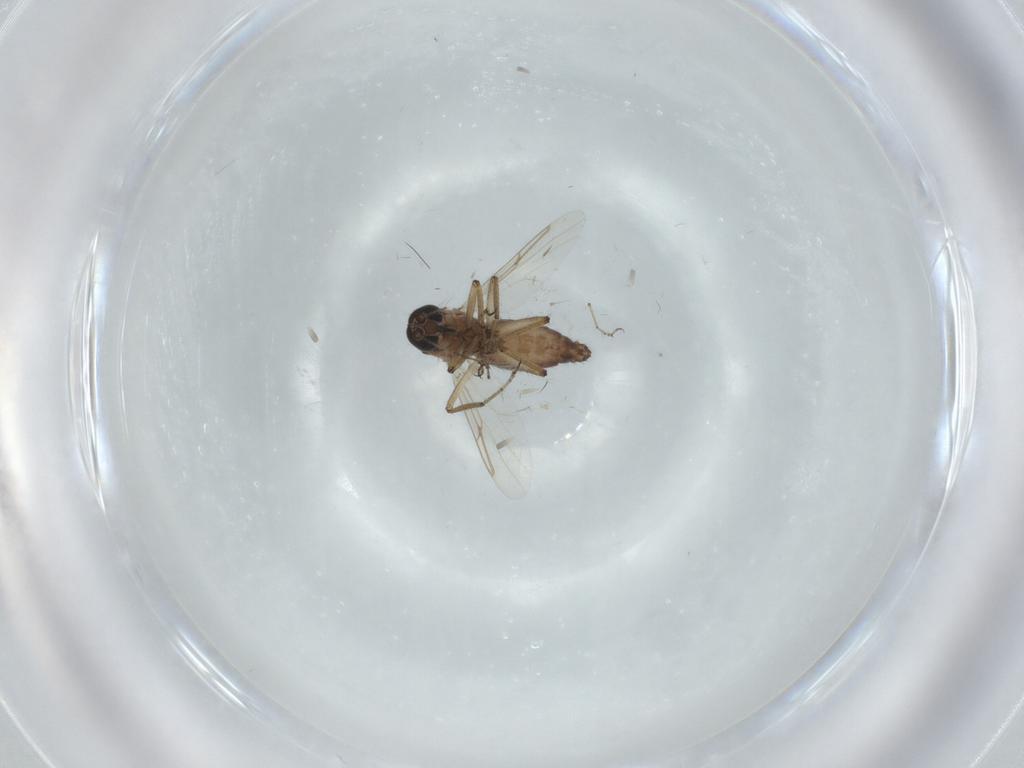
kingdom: Animalia
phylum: Arthropoda
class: Insecta
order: Diptera
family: Ceratopogonidae
